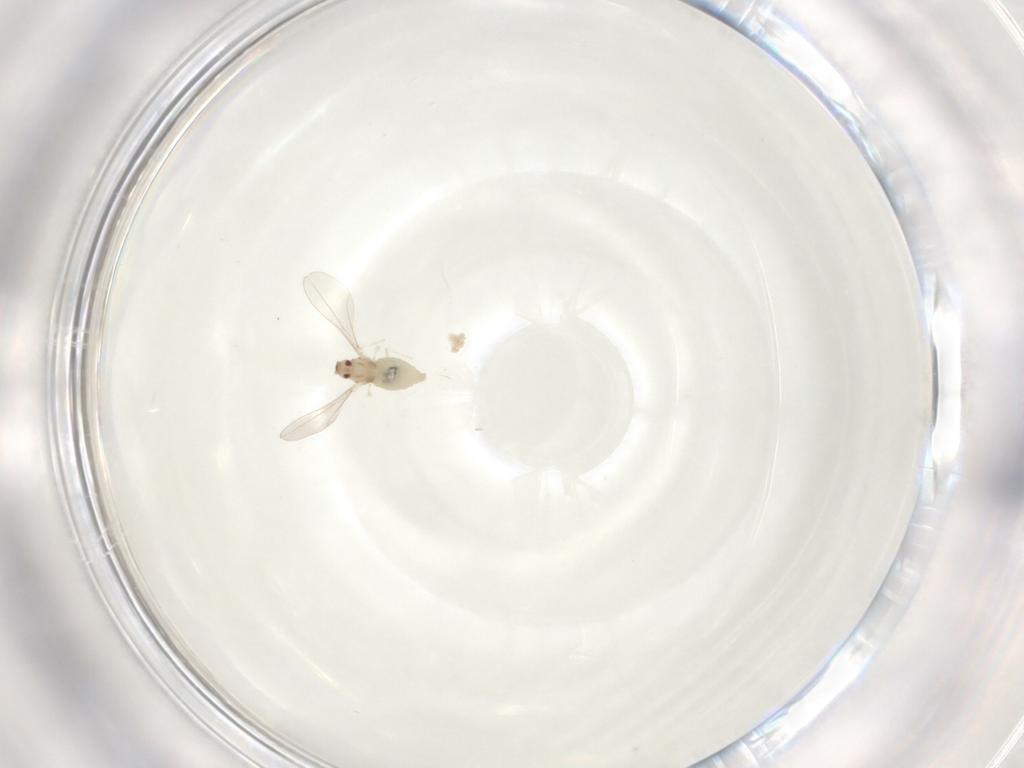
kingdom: Animalia
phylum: Arthropoda
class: Insecta
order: Diptera
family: Cecidomyiidae
